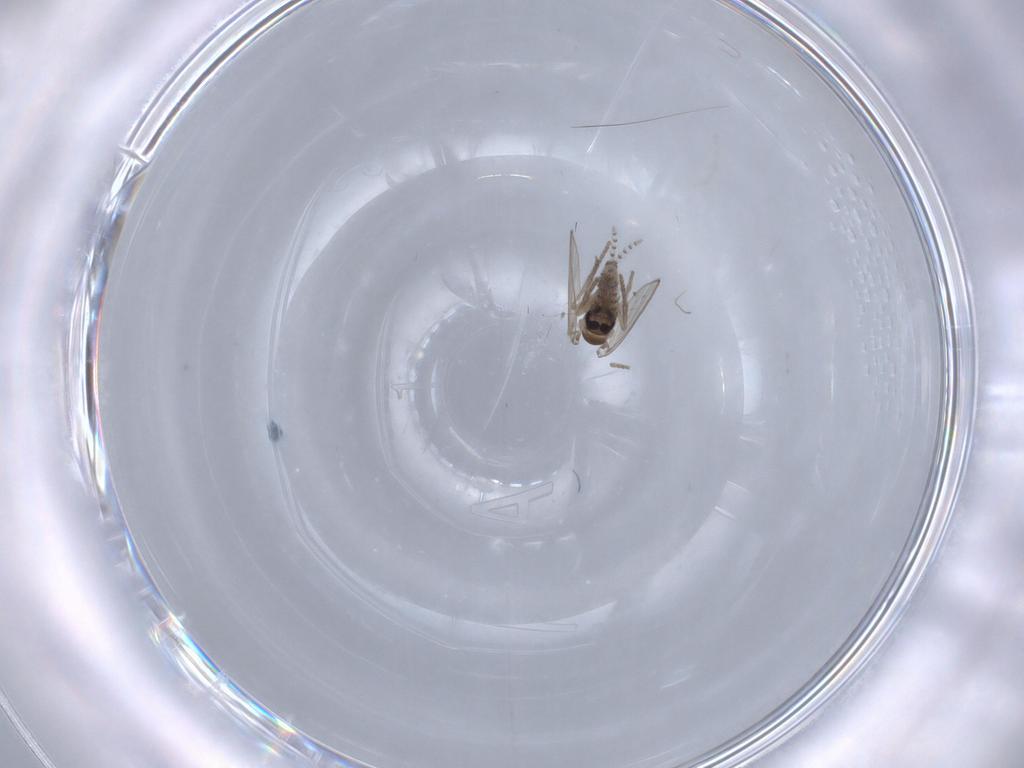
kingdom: Animalia
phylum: Arthropoda
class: Insecta
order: Diptera
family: Psychodidae
